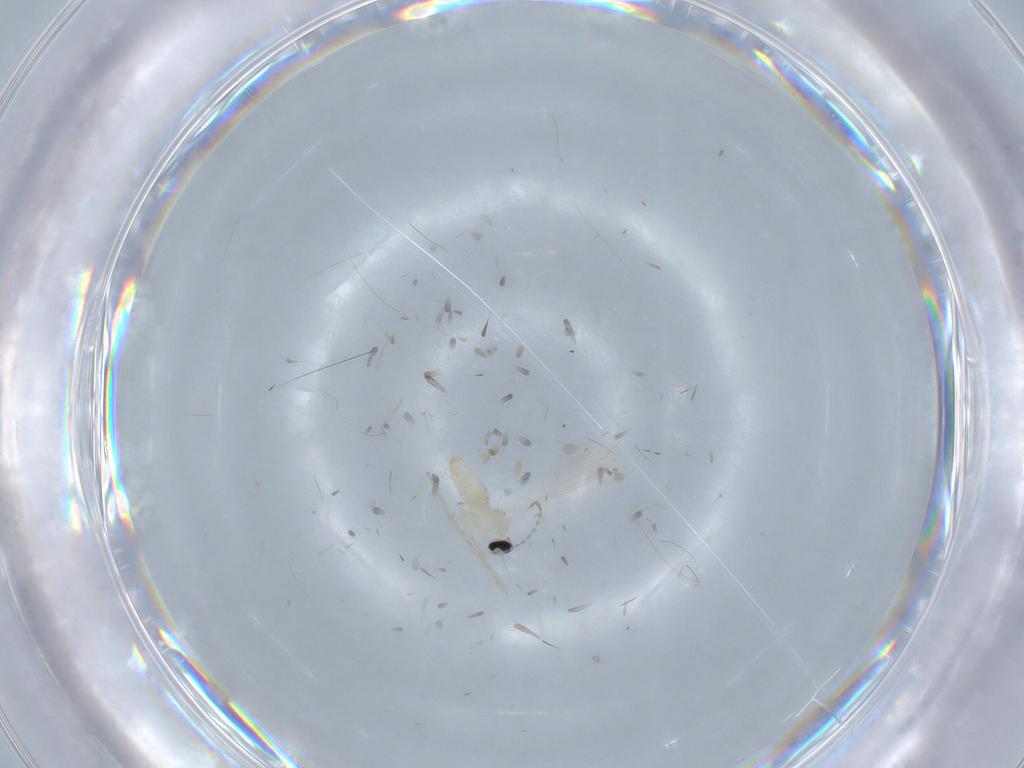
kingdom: Animalia
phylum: Arthropoda
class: Insecta
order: Diptera
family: Cecidomyiidae
